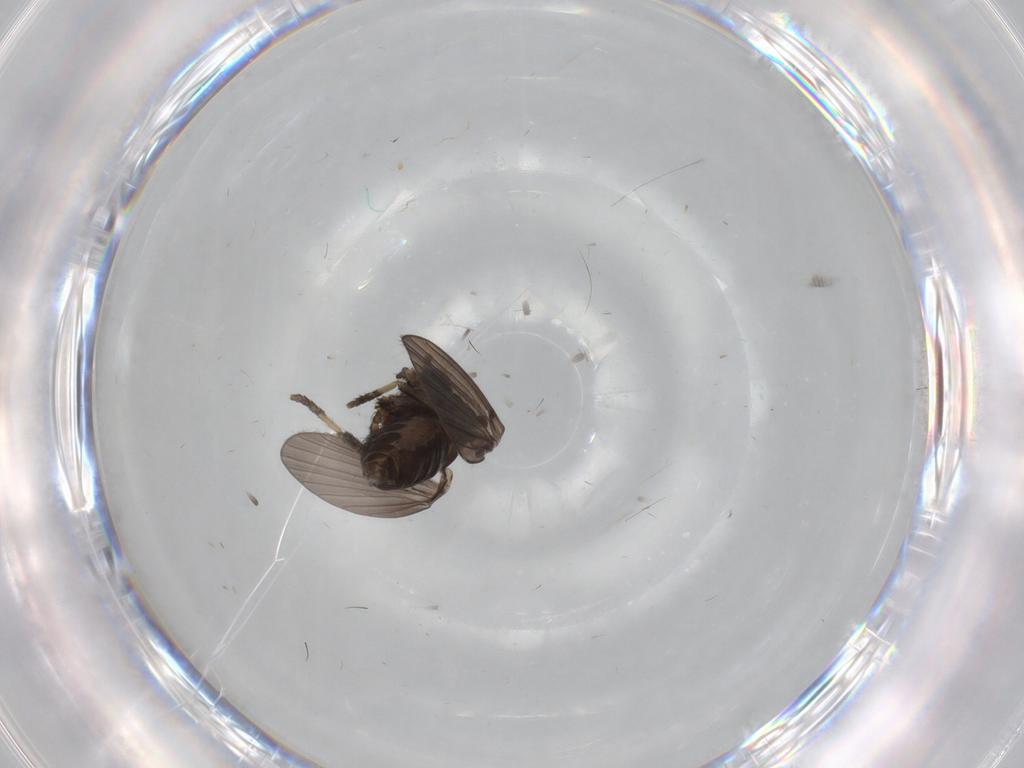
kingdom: Animalia
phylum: Arthropoda
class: Insecta
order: Diptera
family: Psychodidae
